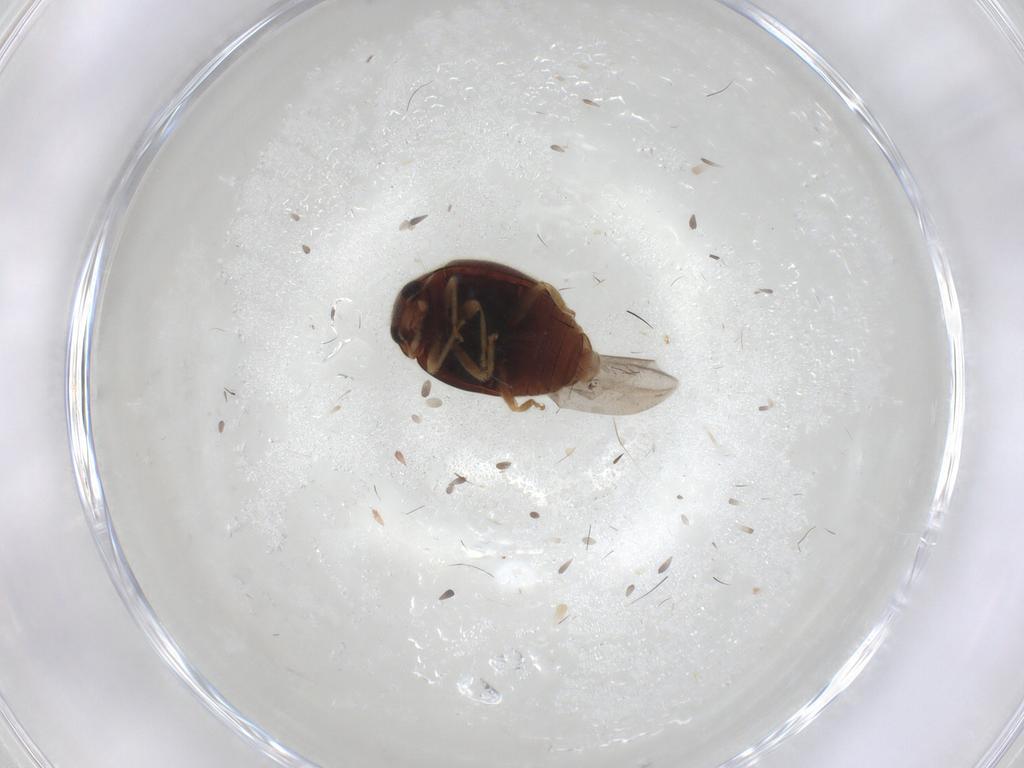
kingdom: Animalia
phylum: Arthropoda
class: Insecta
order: Coleoptera
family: Coccinellidae
